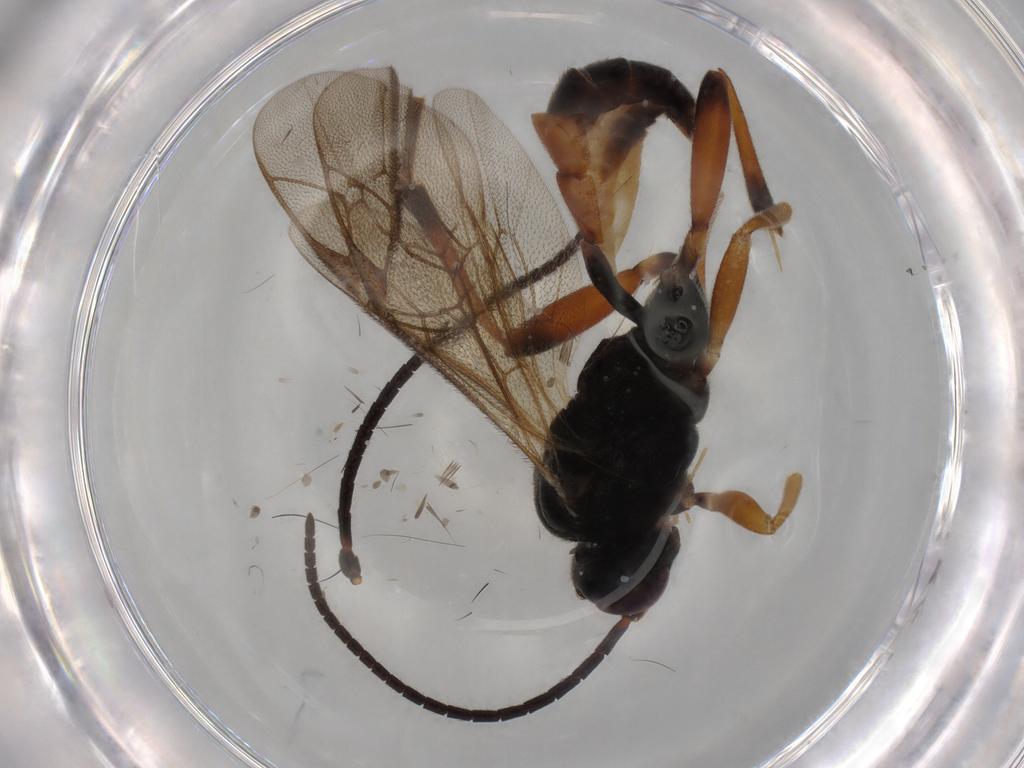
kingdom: Animalia
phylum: Arthropoda
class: Insecta
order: Hymenoptera
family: Ichneumonidae
